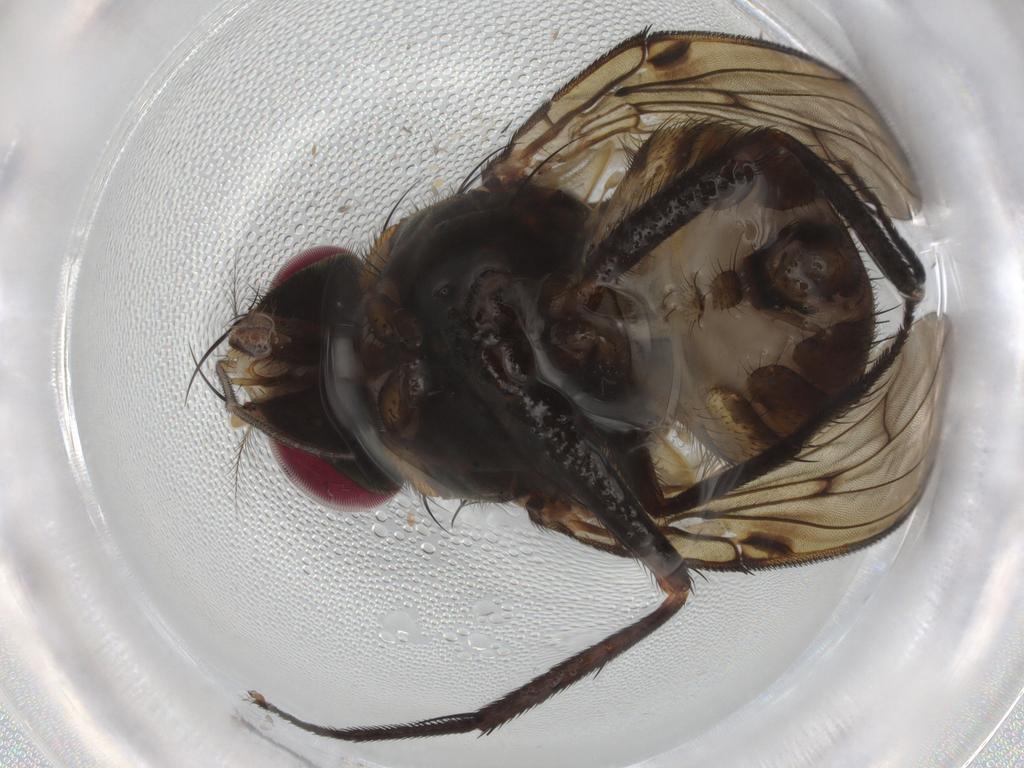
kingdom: Animalia
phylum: Arthropoda
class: Insecta
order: Diptera
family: Muscidae
